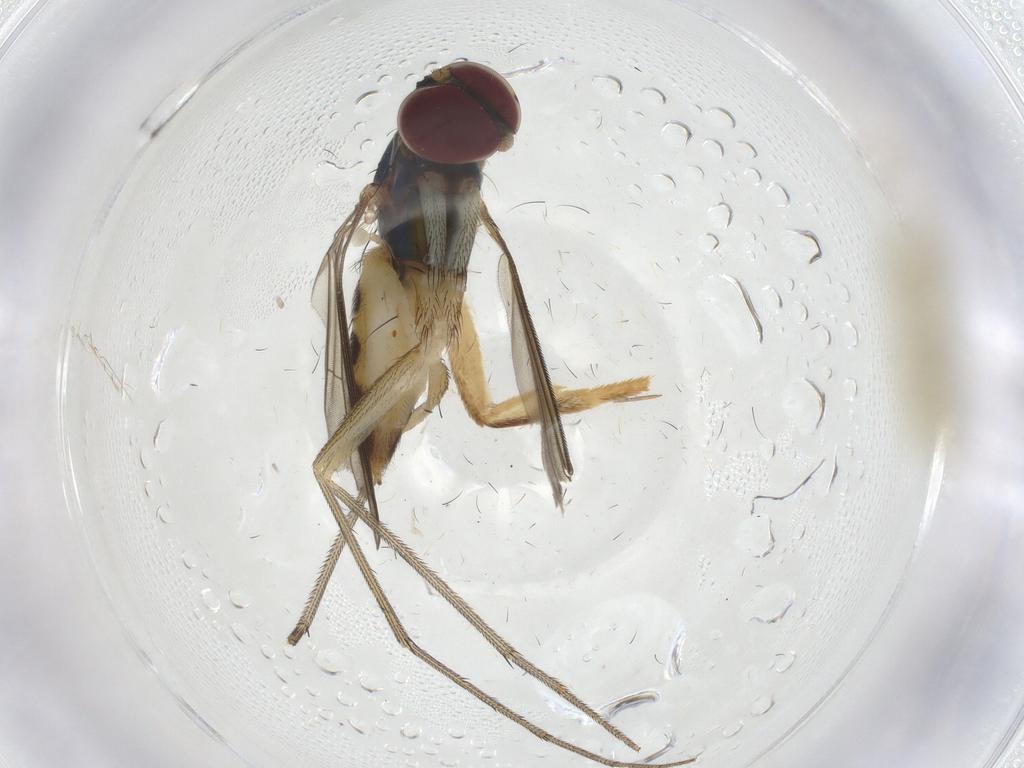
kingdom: Animalia
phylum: Arthropoda
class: Insecta
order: Diptera
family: Dolichopodidae
